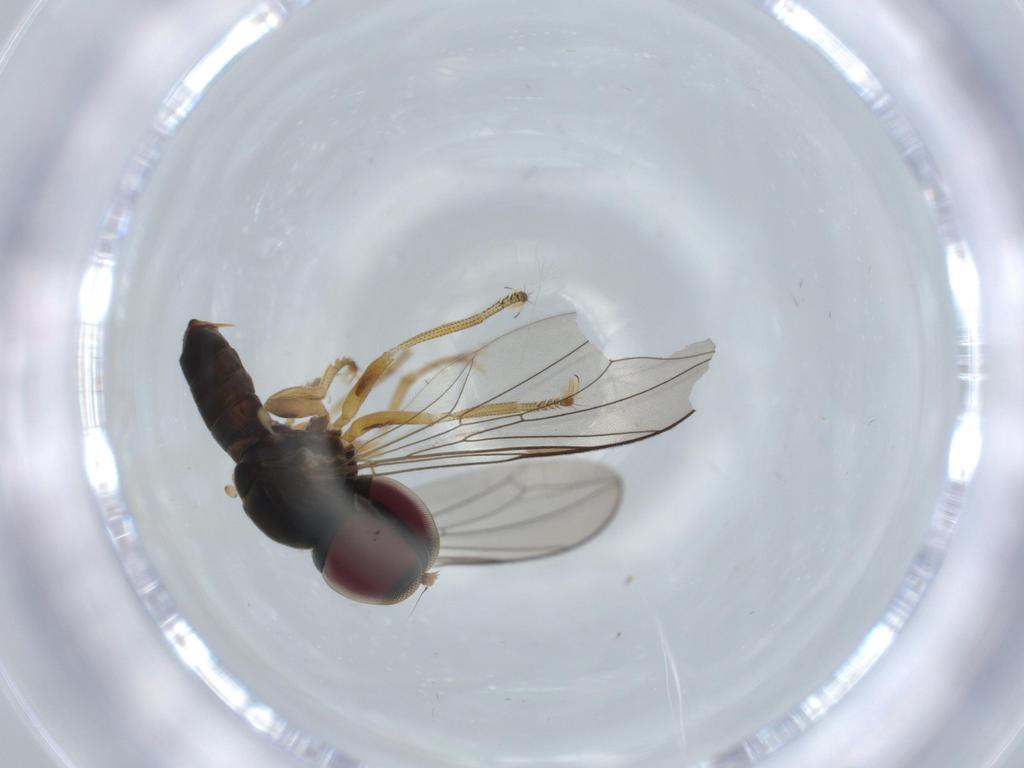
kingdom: Animalia
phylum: Arthropoda
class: Insecta
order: Diptera
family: Pipunculidae
